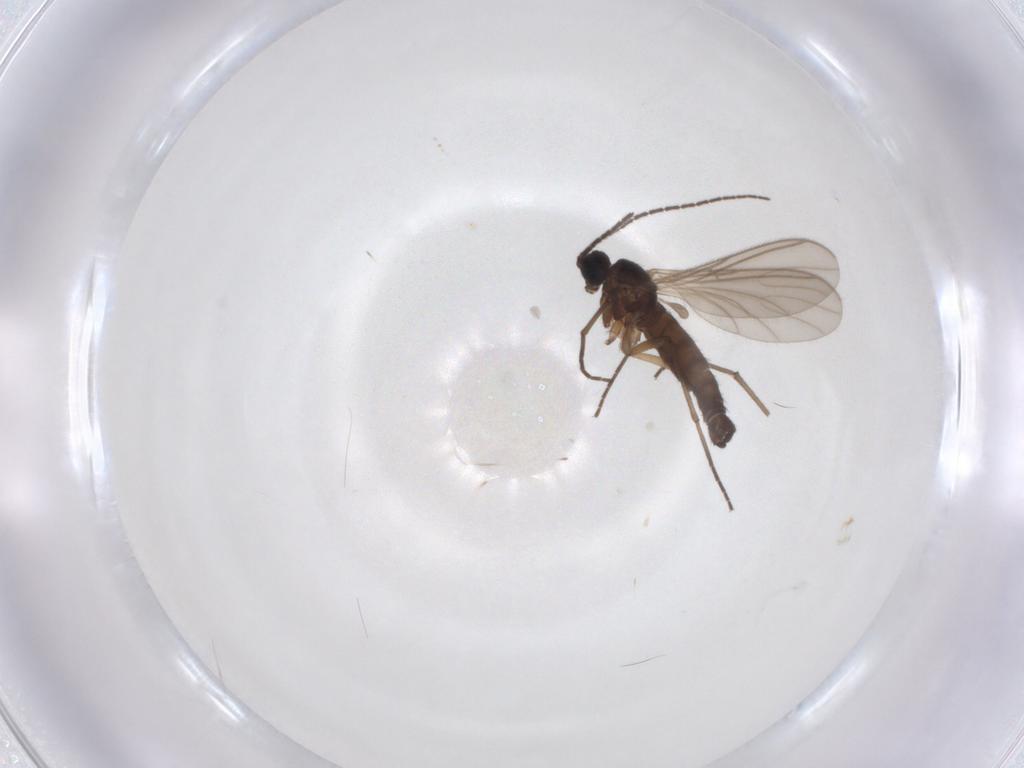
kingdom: Animalia
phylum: Arthropoda
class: Insecta
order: Diptera
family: Sciaridae
